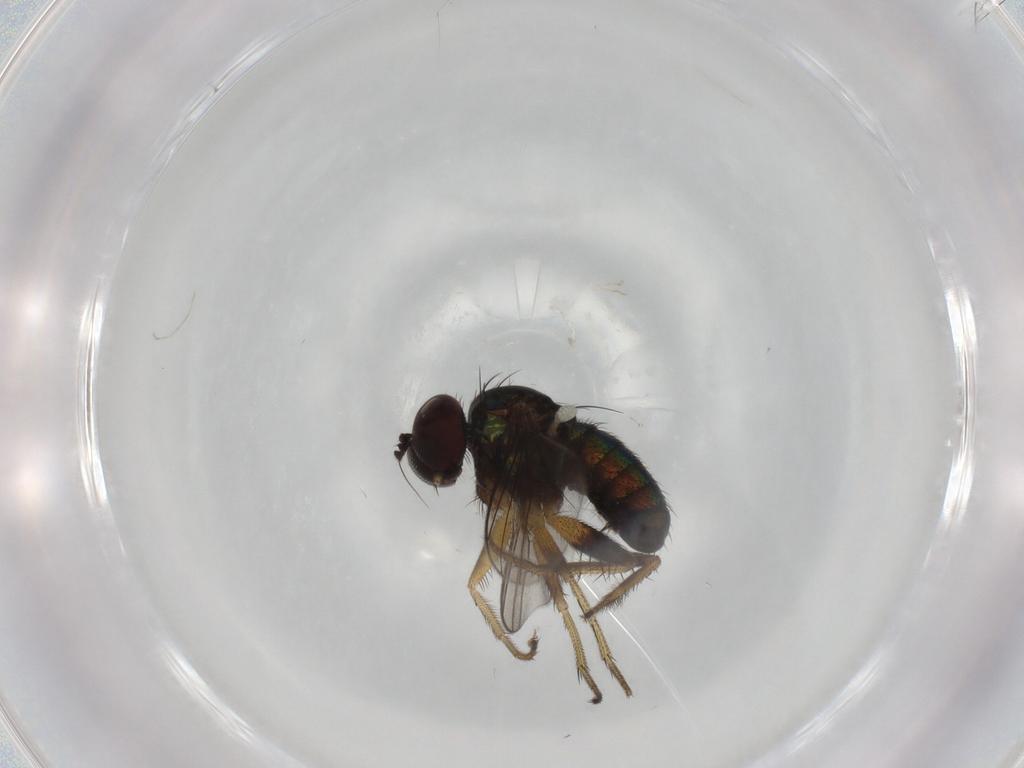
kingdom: Animalia
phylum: Arthropoda
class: Insecta
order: Diptera
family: Dolichopodidae
